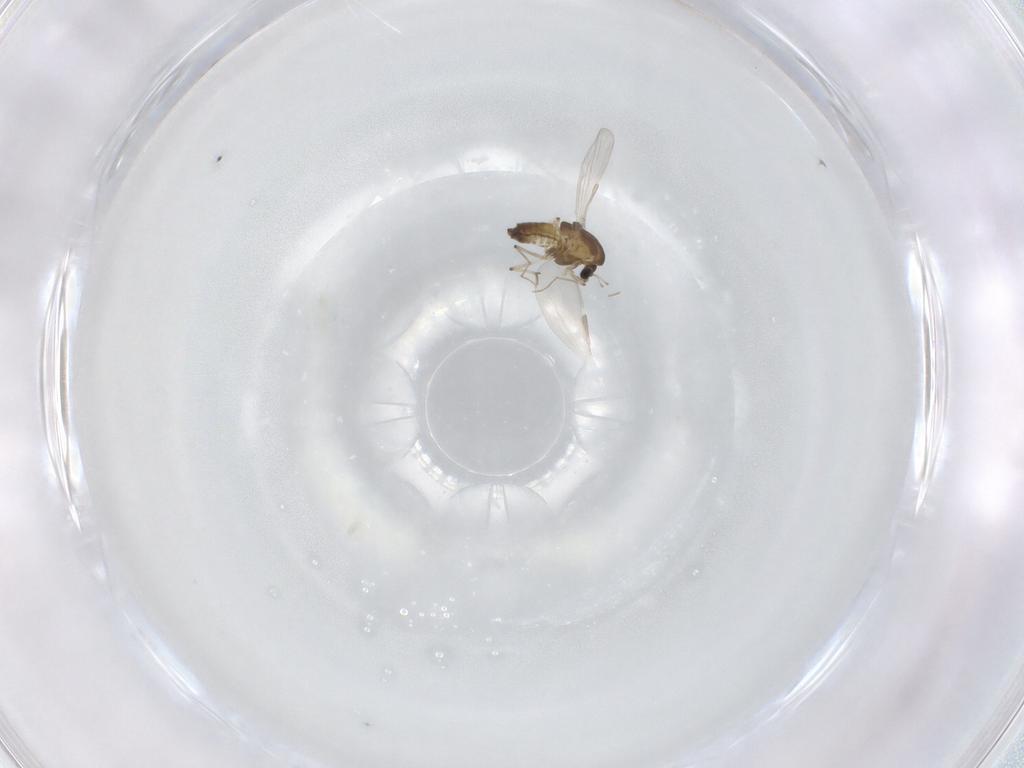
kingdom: Animalia
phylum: Arthropoda
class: Insecta
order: Diptera
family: Chironomidae
